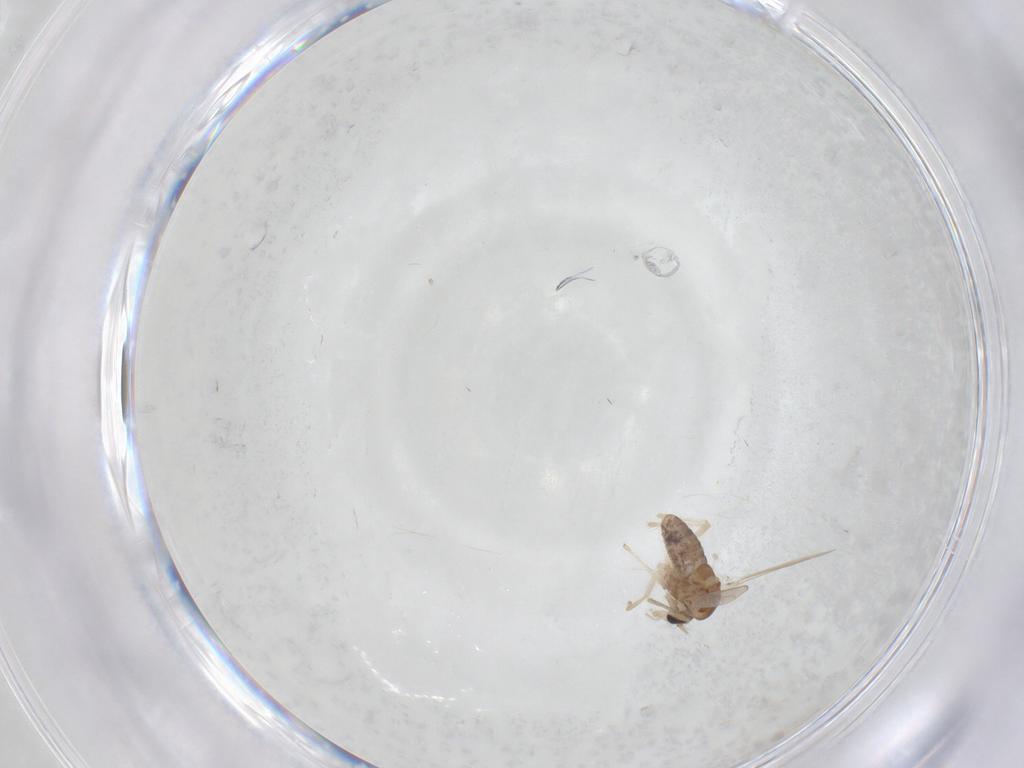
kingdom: Animalia
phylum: Arthropoda
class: Insecta
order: Diptera
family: Chironomidae
